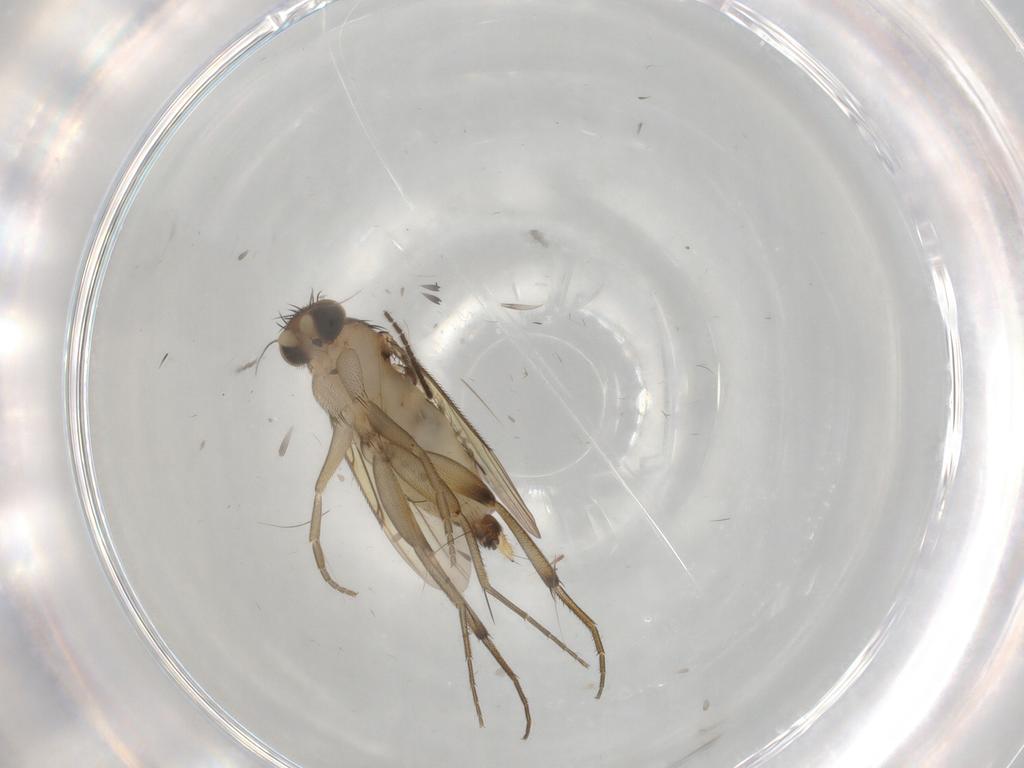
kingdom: Animalia
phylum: Arthropoda
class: Insecta
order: Diptera
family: Phoridae
